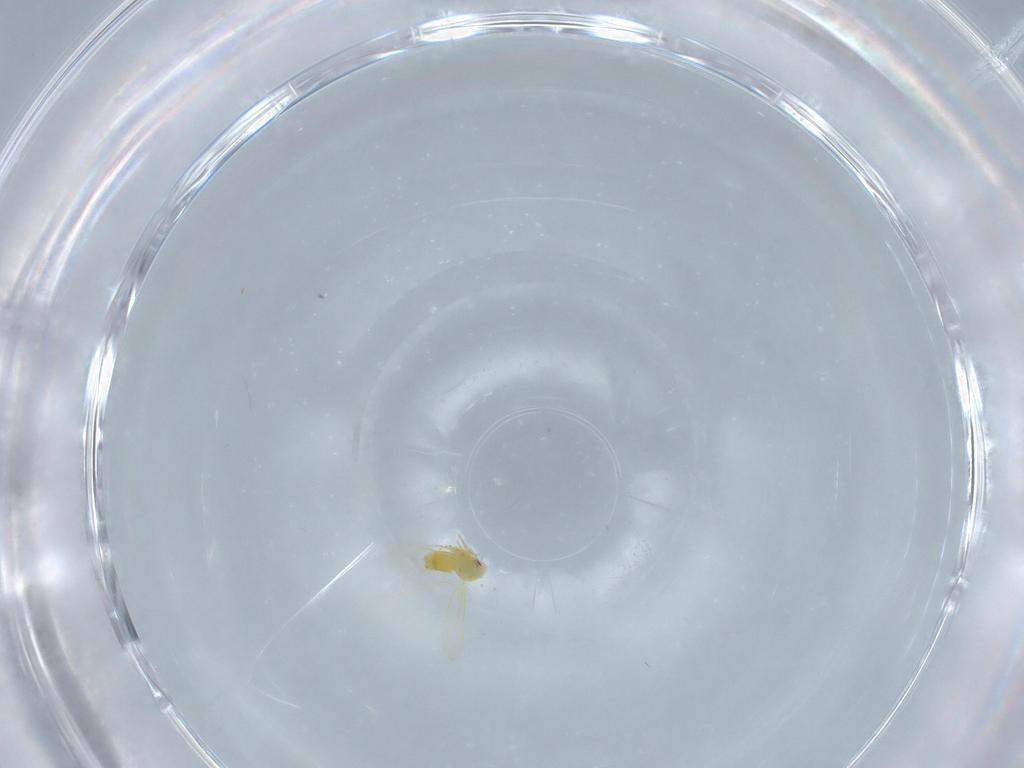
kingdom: Animalia
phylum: Arthropoda
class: Insecta
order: Hemiptera
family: Aleyrodidae
